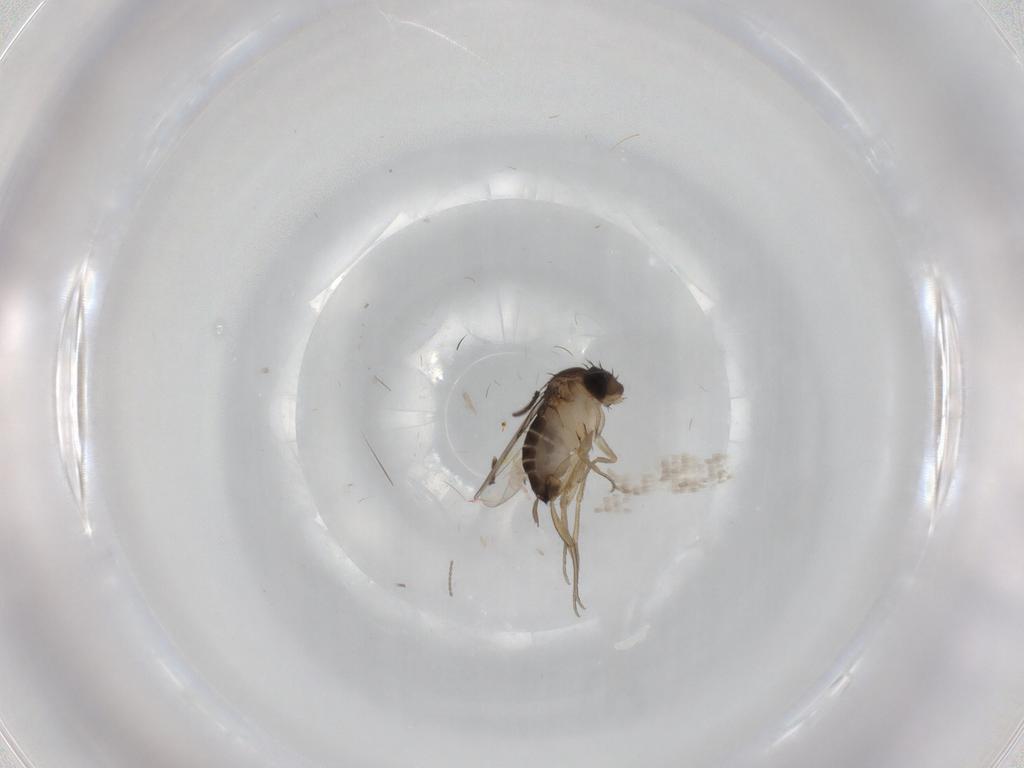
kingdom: Animalia
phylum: Arthropoda
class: Insecta
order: Diptera
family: Sciaridae
